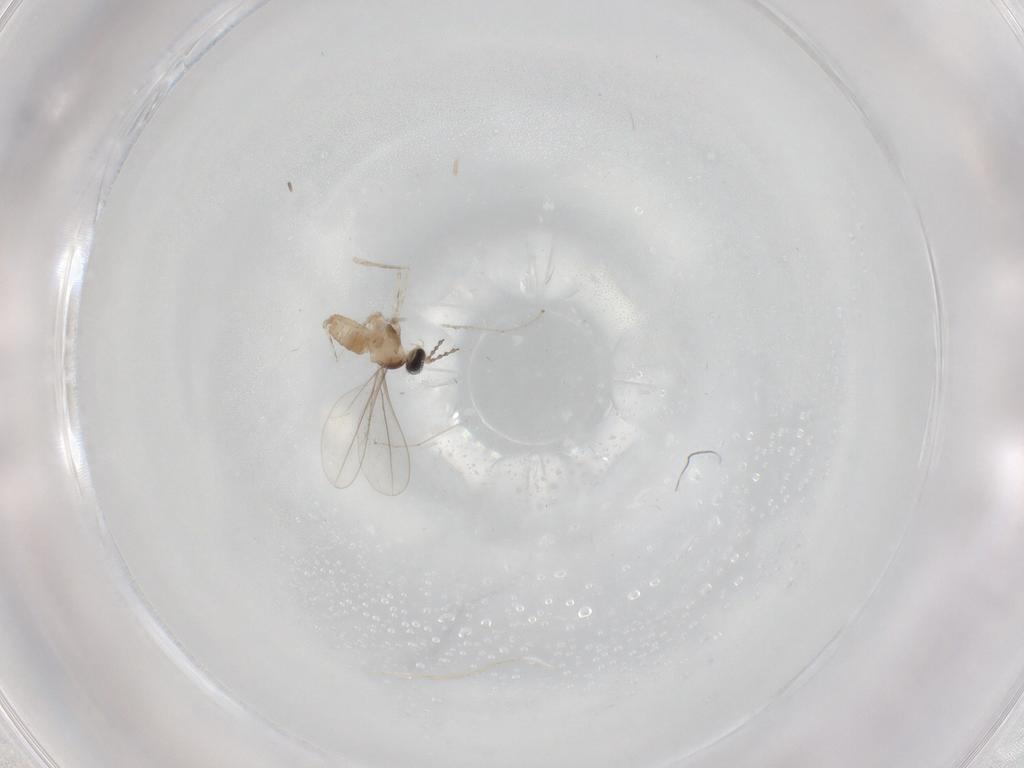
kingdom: Animalia
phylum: Arthropoda
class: Insecta
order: Diptera
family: Cecidomyiidae
